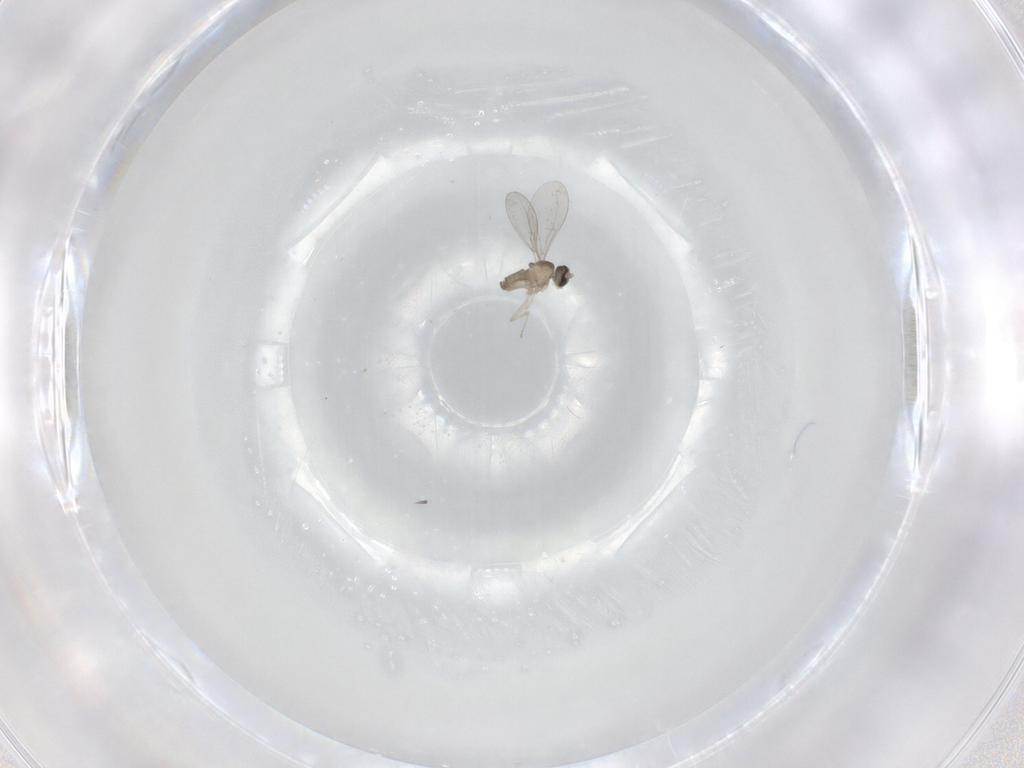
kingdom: Animalia
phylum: Arthropoda
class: Insecta
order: Diptera
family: Cecidomyiidae
